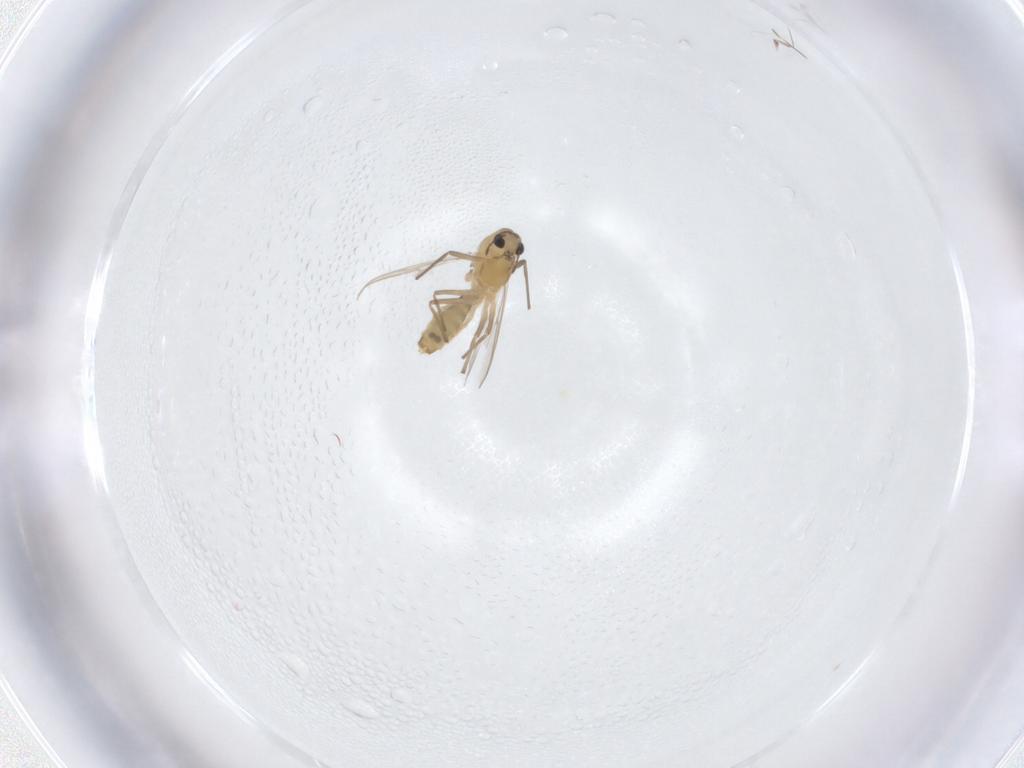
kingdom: Animalia
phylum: Arthropoda
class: Insecta
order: Diptera
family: Chironomidae
